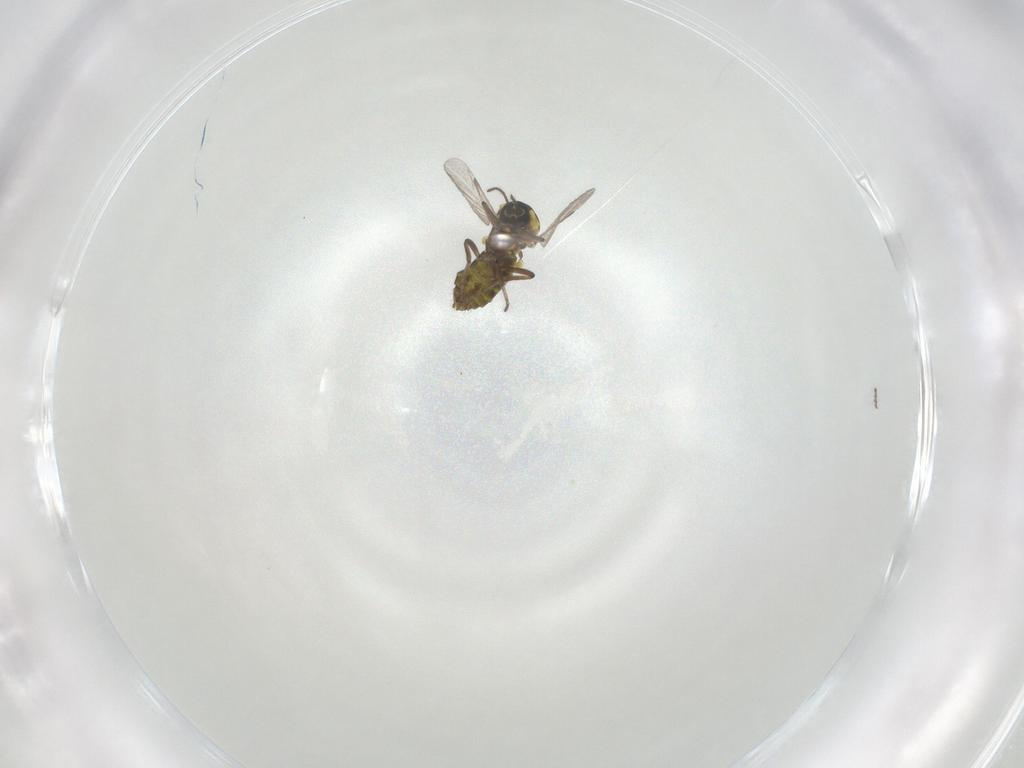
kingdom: Animalia
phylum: Arthropoda
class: Insecta
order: Diptera
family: Ceratopogonidae
